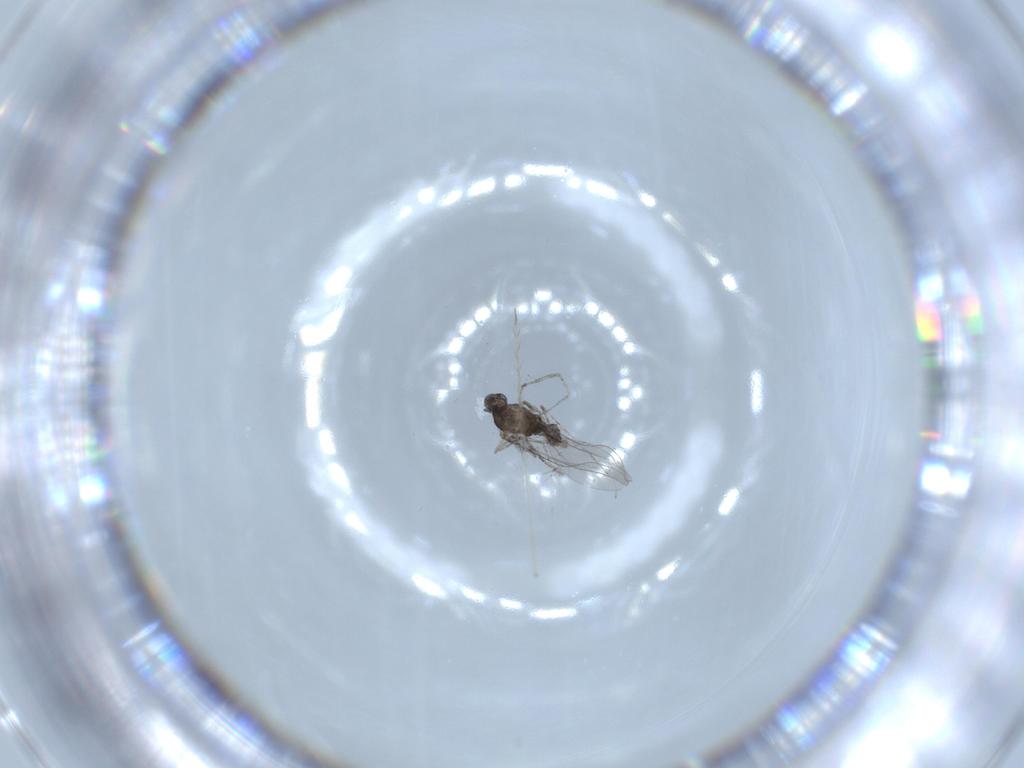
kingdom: Animalia
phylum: Arthropoda
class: Insecta
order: Diptera
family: Cecidomyiidae
